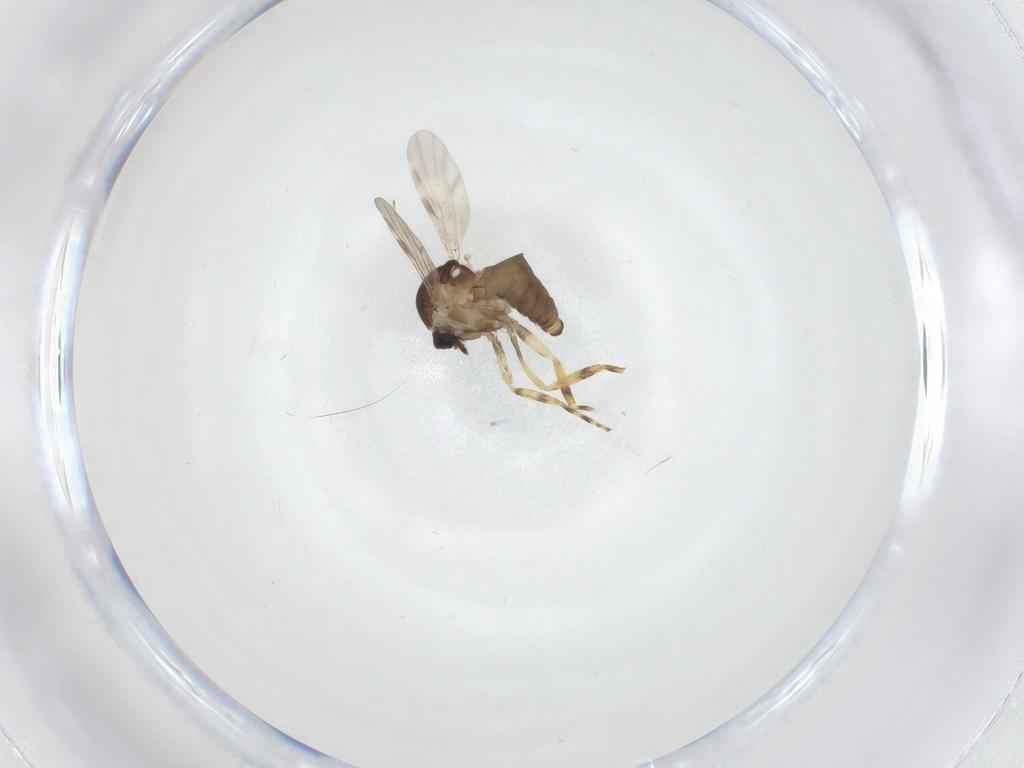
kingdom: Animalia
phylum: Arthropoda
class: Insecta
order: Diptera
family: Ceratopogonidae
